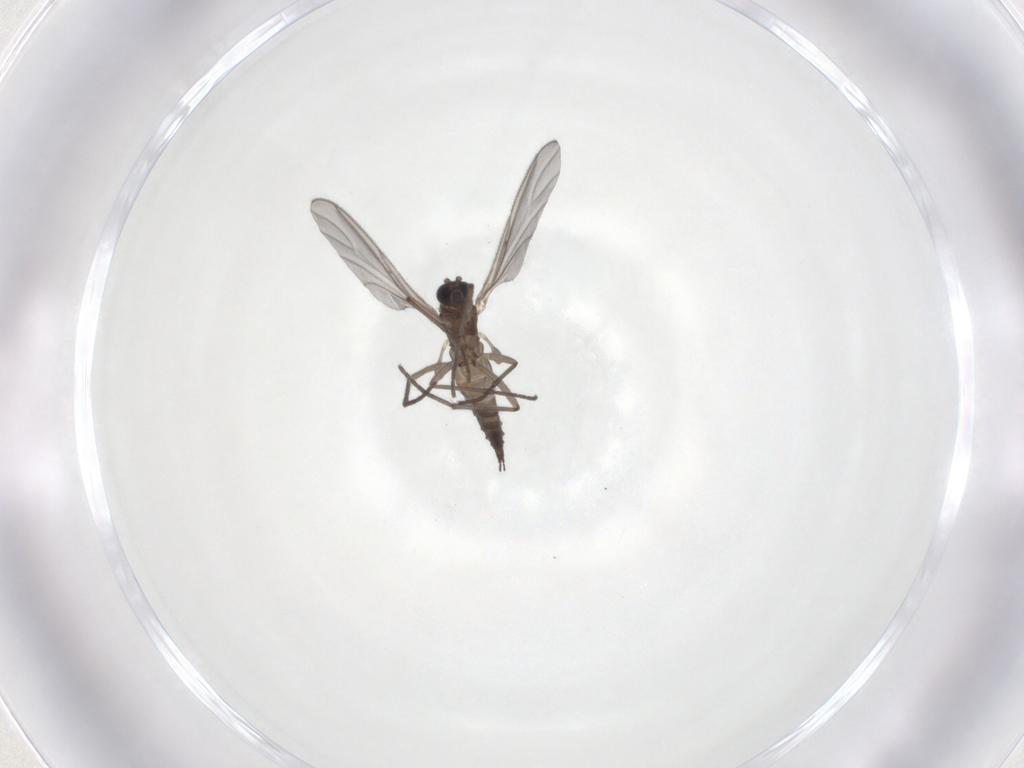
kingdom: Animalia
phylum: Arthropoda
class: Insecta
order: Diptera
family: Sciaridae
